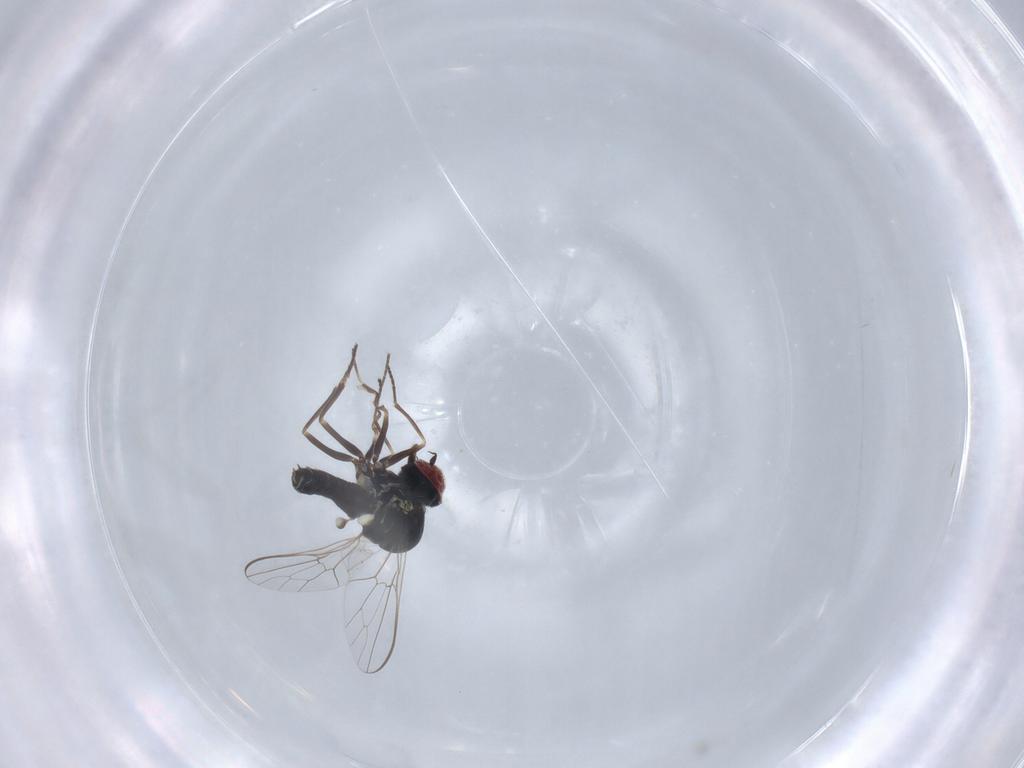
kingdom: Animalia
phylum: Arthropoda
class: Insecta
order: Diptera
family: Bombyliidae
